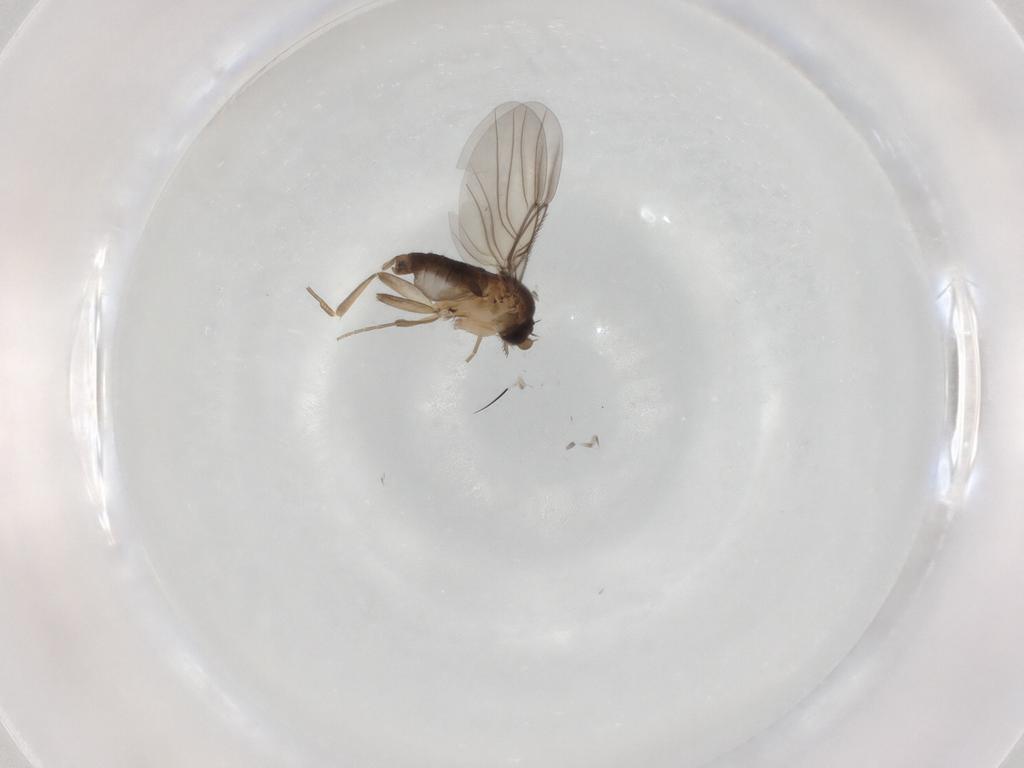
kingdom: Animalia
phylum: Arthropoda
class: Insecta
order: Diptera
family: Phoridae
